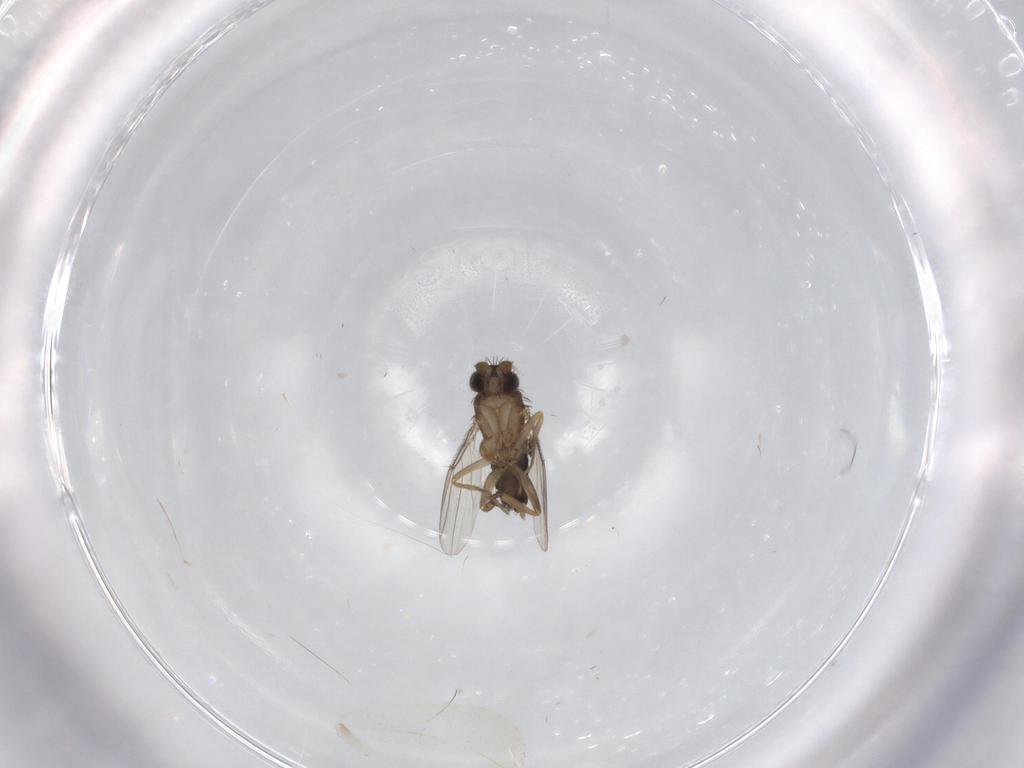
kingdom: Animalia
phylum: Arthropoda
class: Insecta
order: Diptera
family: Phoridae
